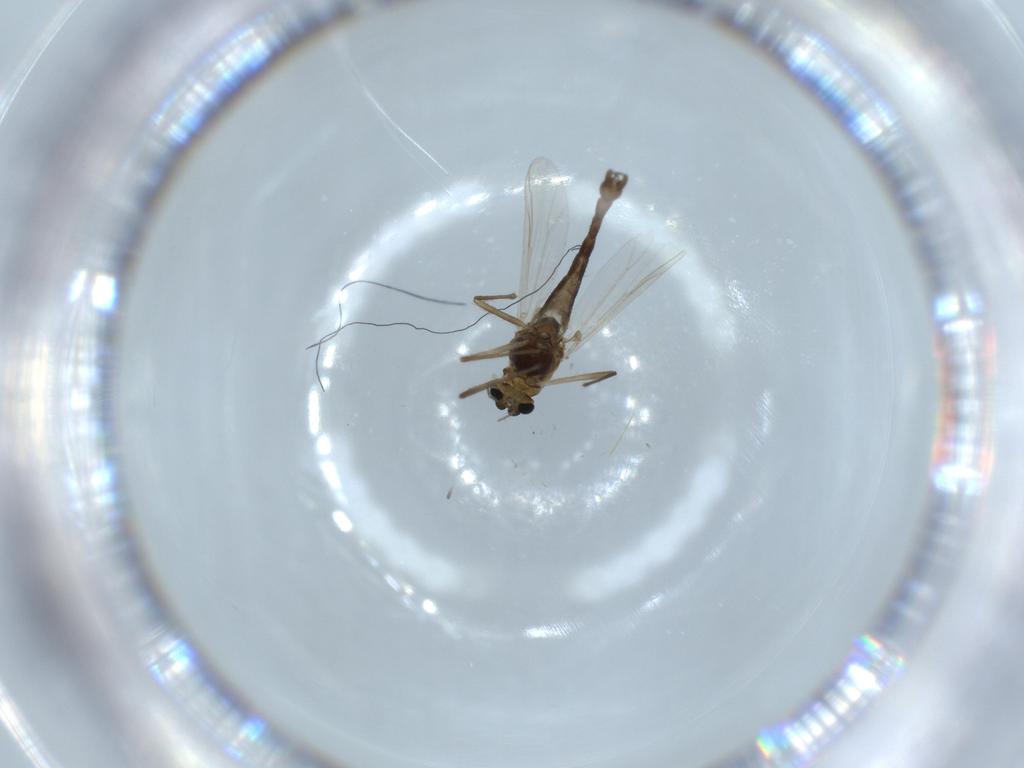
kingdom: Animalia
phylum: Arthropoda
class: Insecta
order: Diptera
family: Chironomidae
